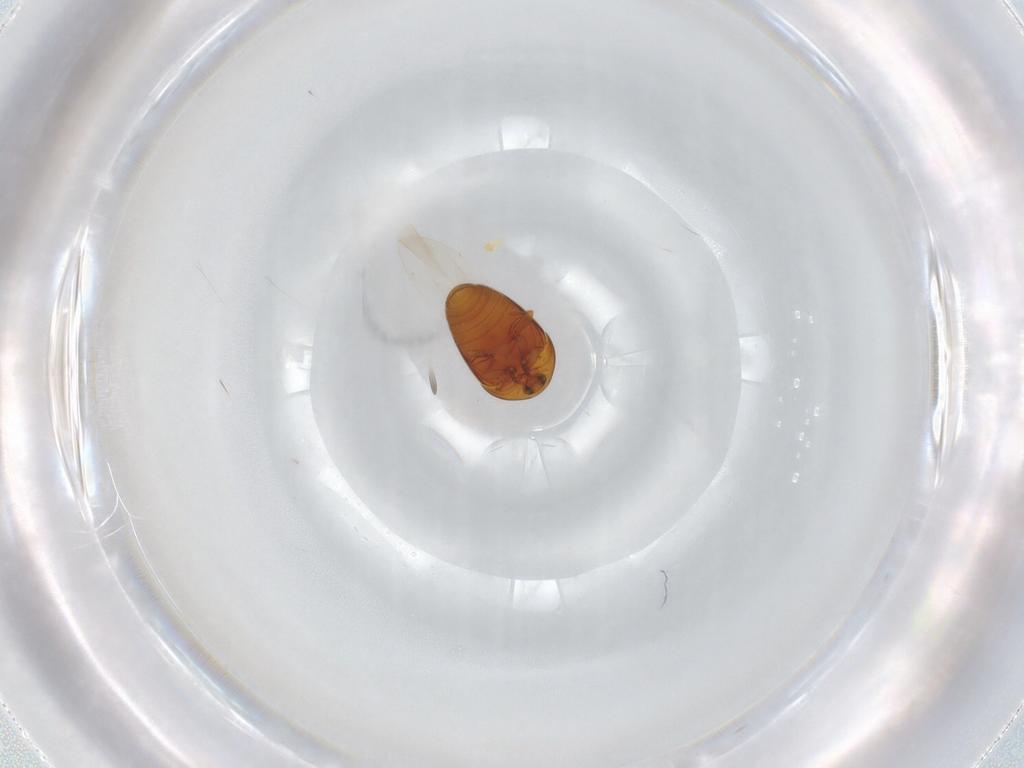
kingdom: Animalia
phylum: Arthropoda
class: Insecta
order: Coleoptera
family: Corylophidae
